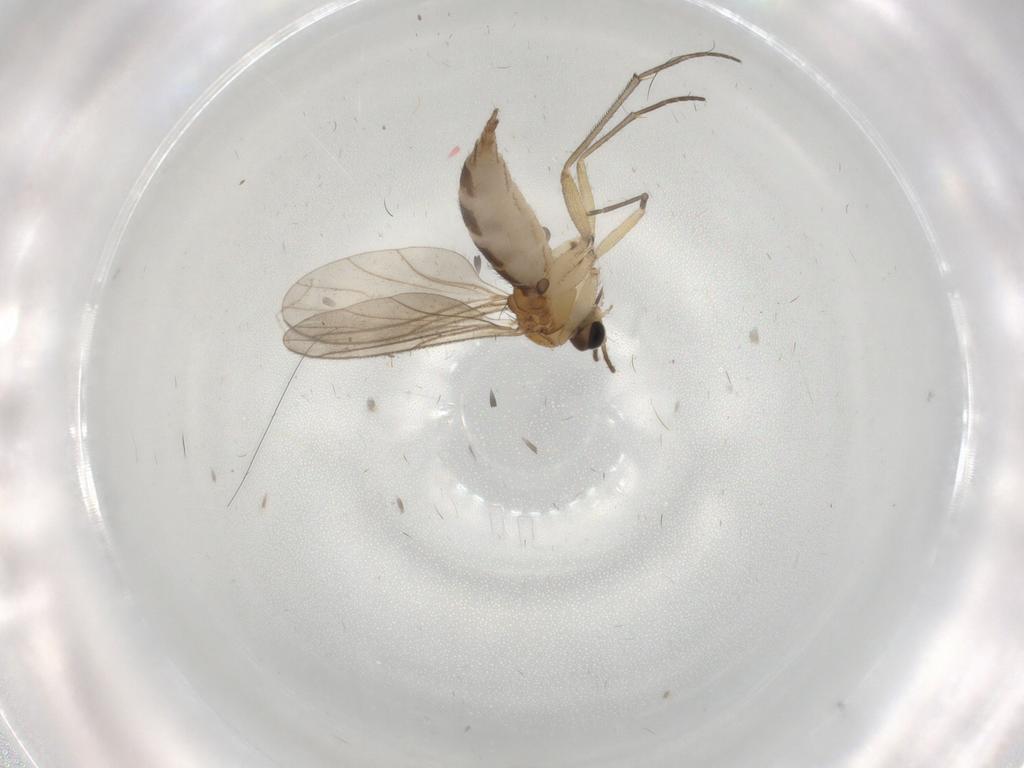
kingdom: Animalia
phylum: Arthropoda
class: Insecta
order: Diptera
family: Sciaridae
